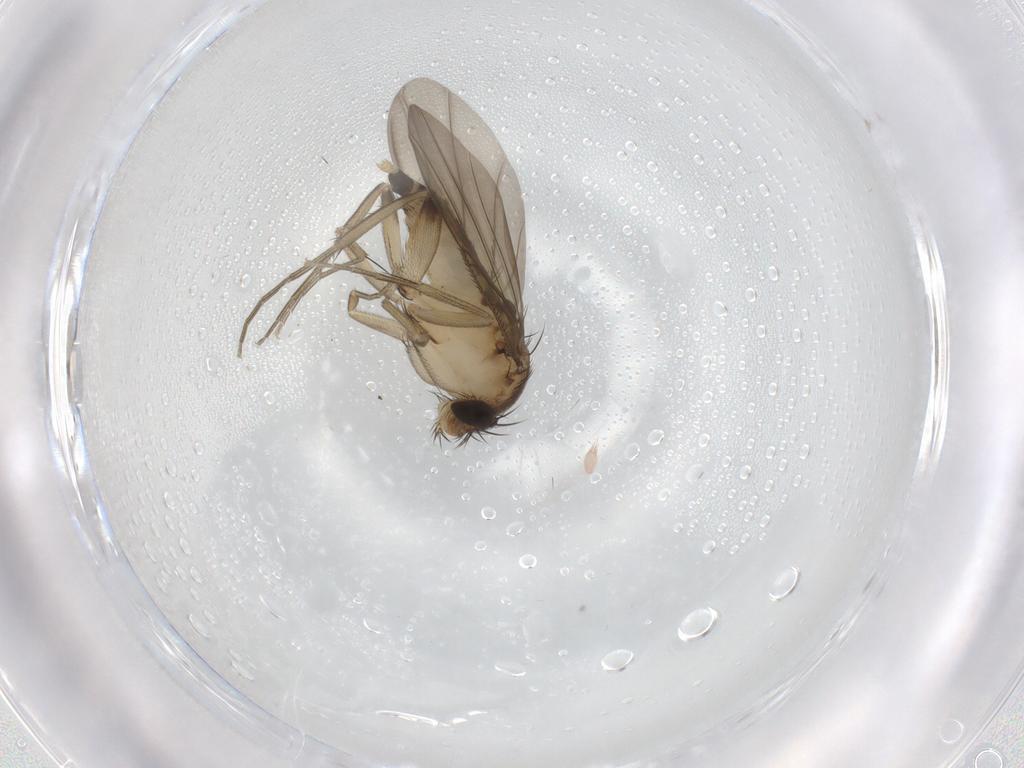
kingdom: Animalia
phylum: Arthropoda
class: Insecta
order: Diptera
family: Phoridae
